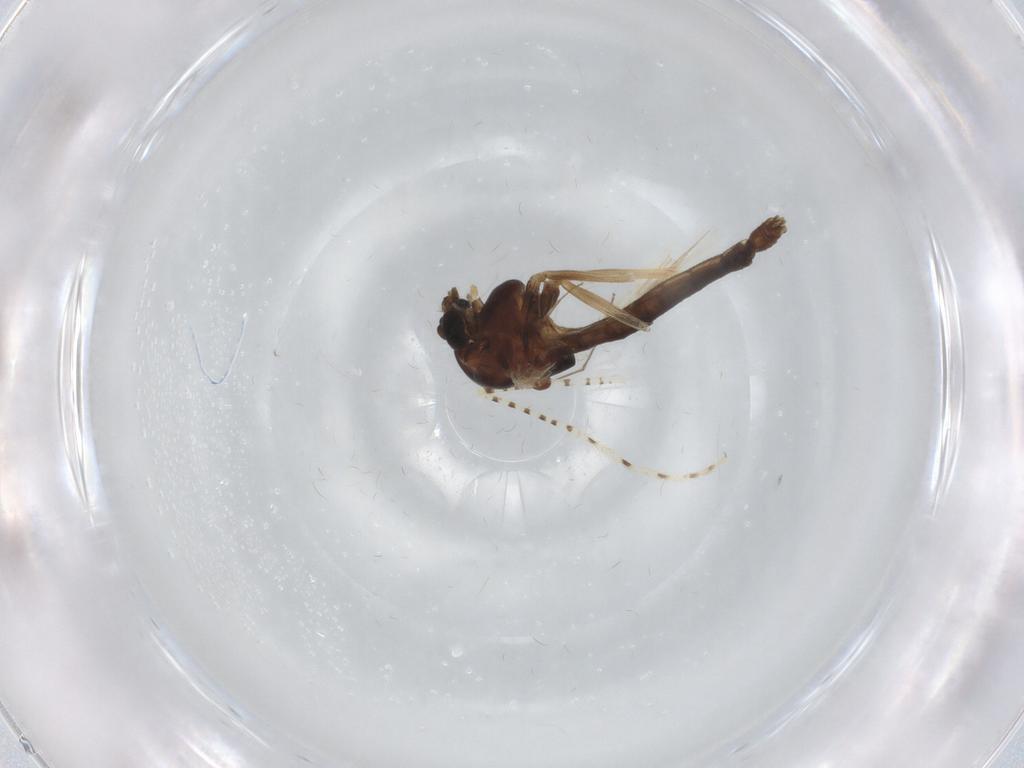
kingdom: Animalia
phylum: Arthropoda
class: Insecta
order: Diptera
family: Chironomidae
